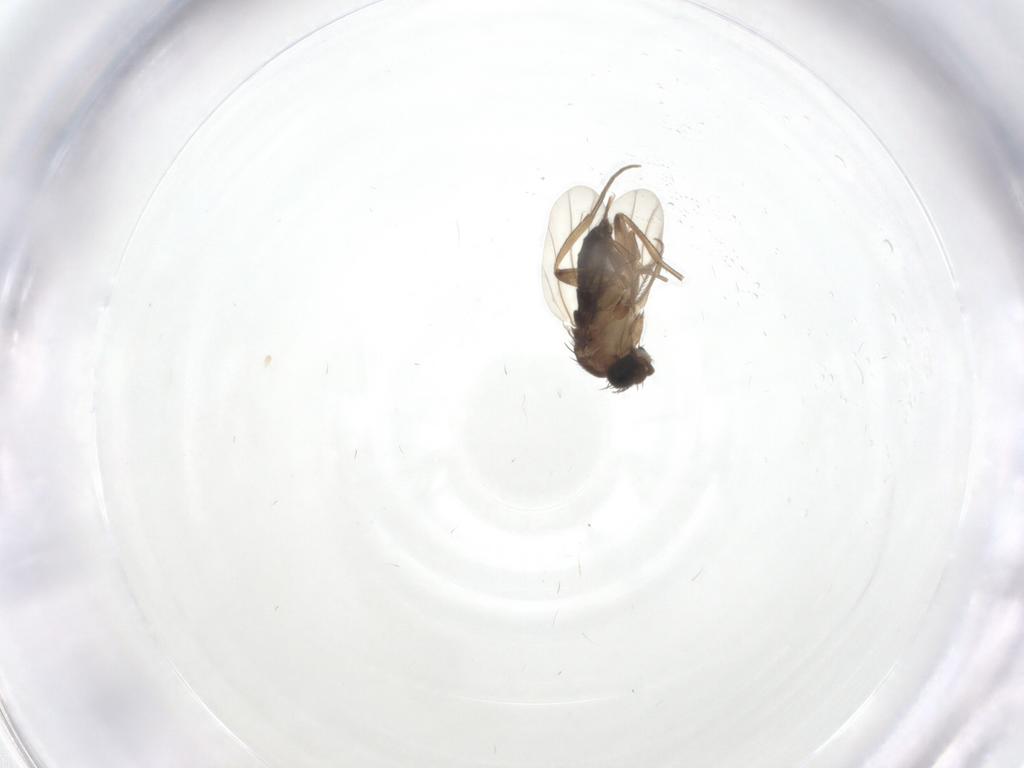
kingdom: Animalia
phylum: Arthropoda
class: Insecta
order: Diptera
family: Phoridae
